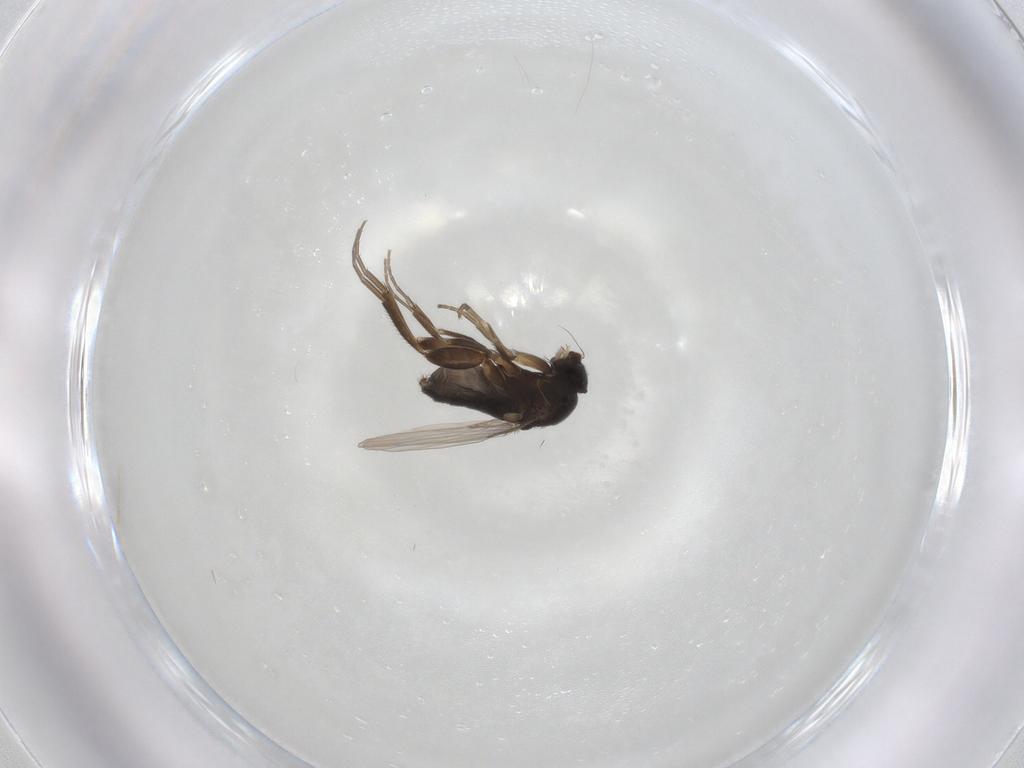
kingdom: Animalia
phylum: Arthropoda
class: Insecta
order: Diptera
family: Phoridae
